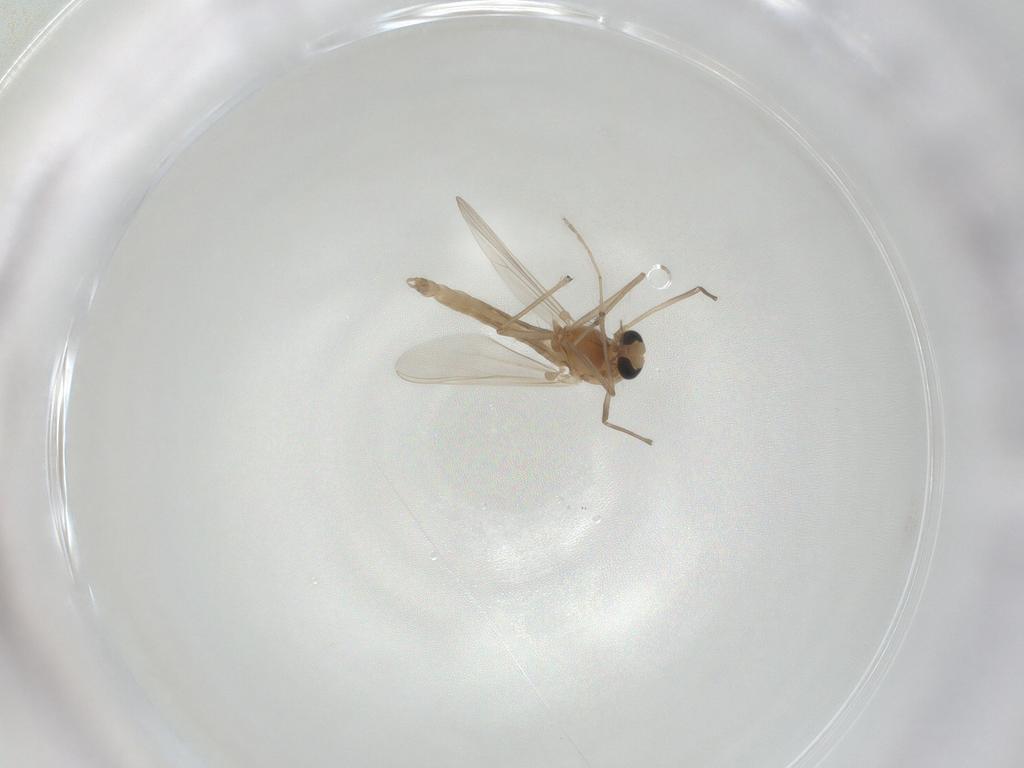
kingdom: Animalia
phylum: Arthropoda
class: Insecta
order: Diptera
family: Chironomidae
